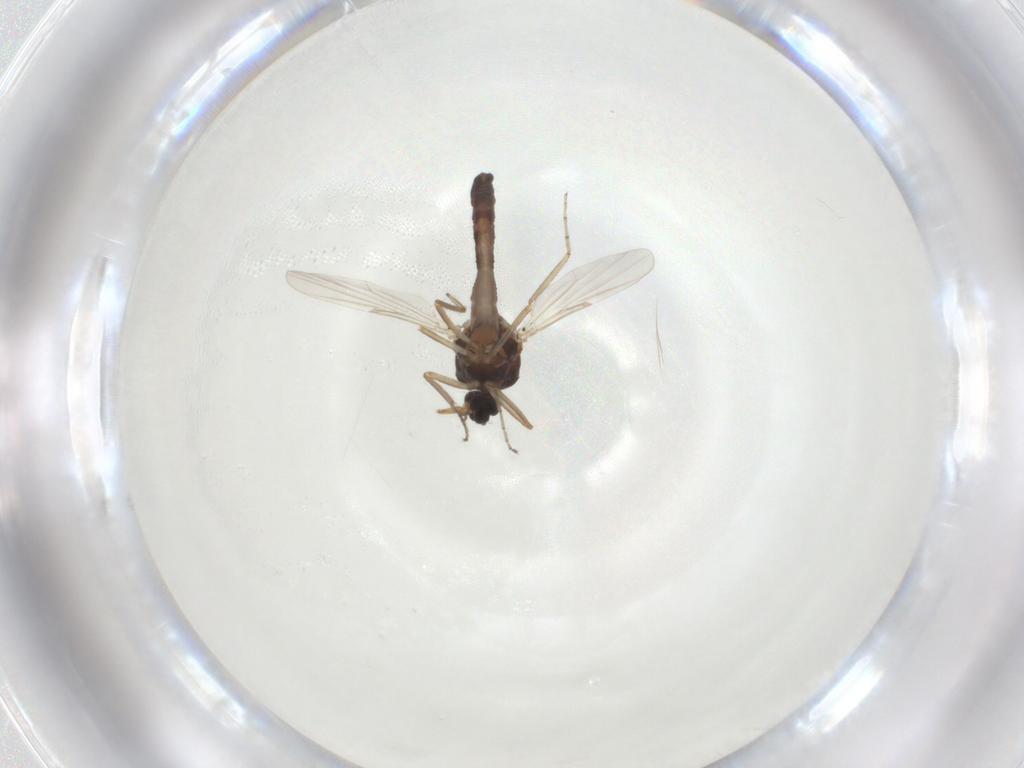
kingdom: Animalia
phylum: Arthropoda
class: Insecta
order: Diptera
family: Ceratopogonidae
